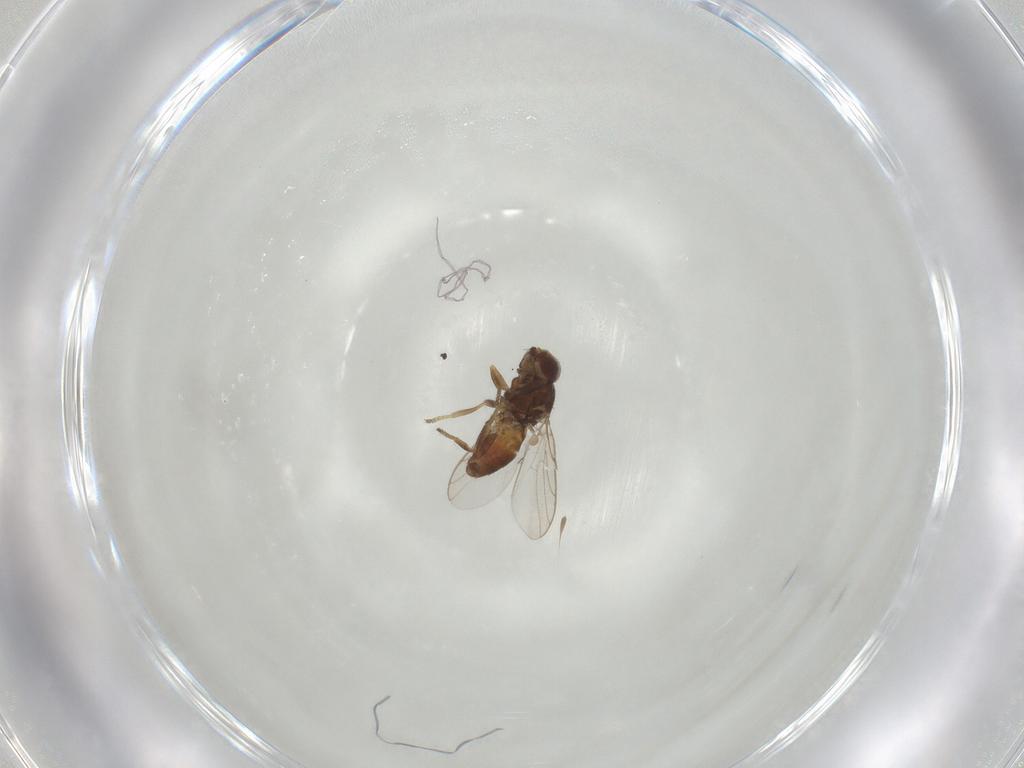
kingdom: Animalia
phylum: Arthropoda
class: Insecta
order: Diptera
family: Chloropidae
